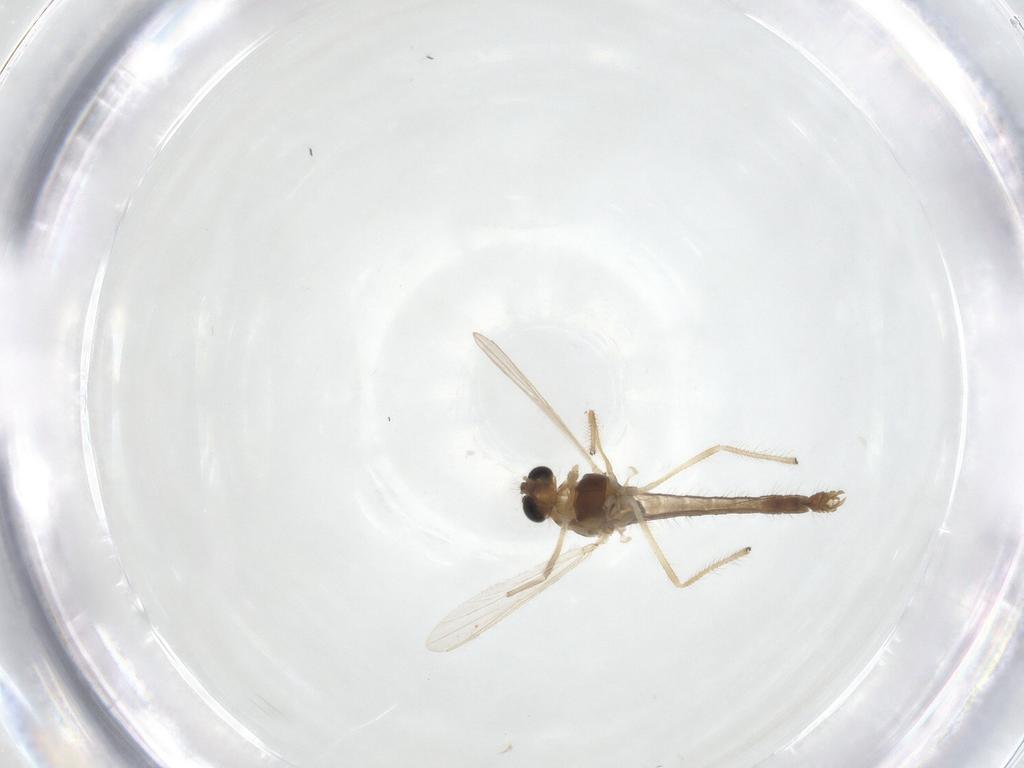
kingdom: Animalia
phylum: Arthropoda
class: Insecta
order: Diptera
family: Chironomidae
